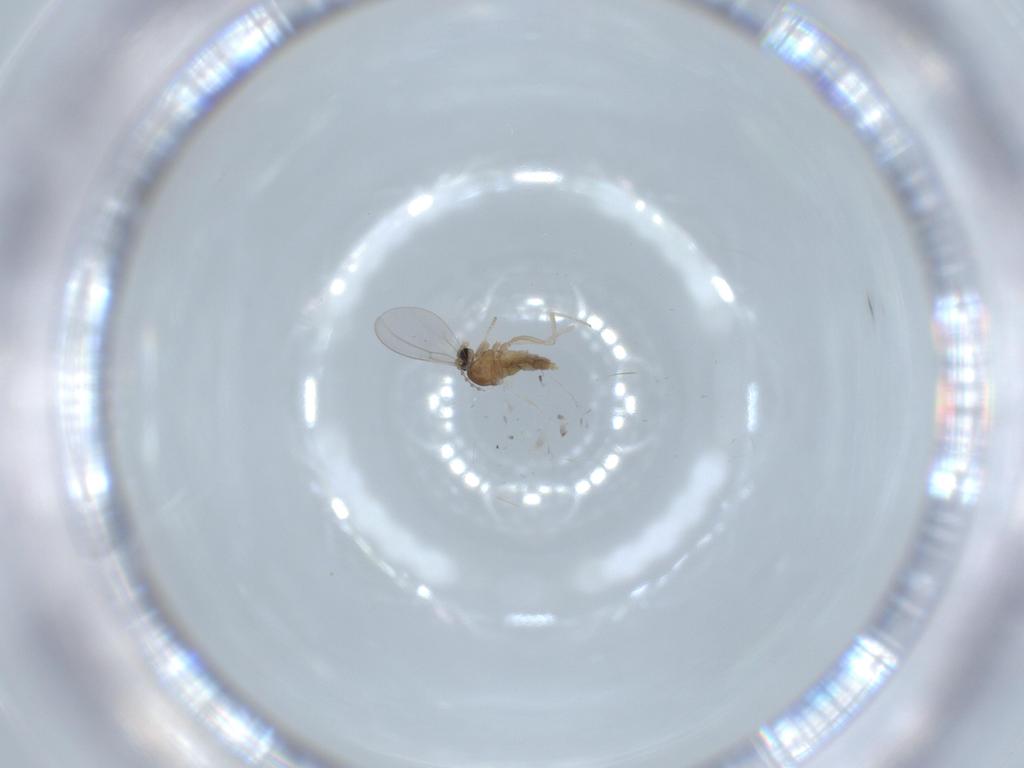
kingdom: Animalia
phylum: Arthropoda
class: Insecta
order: Diptera
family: Cecidomyiidae
